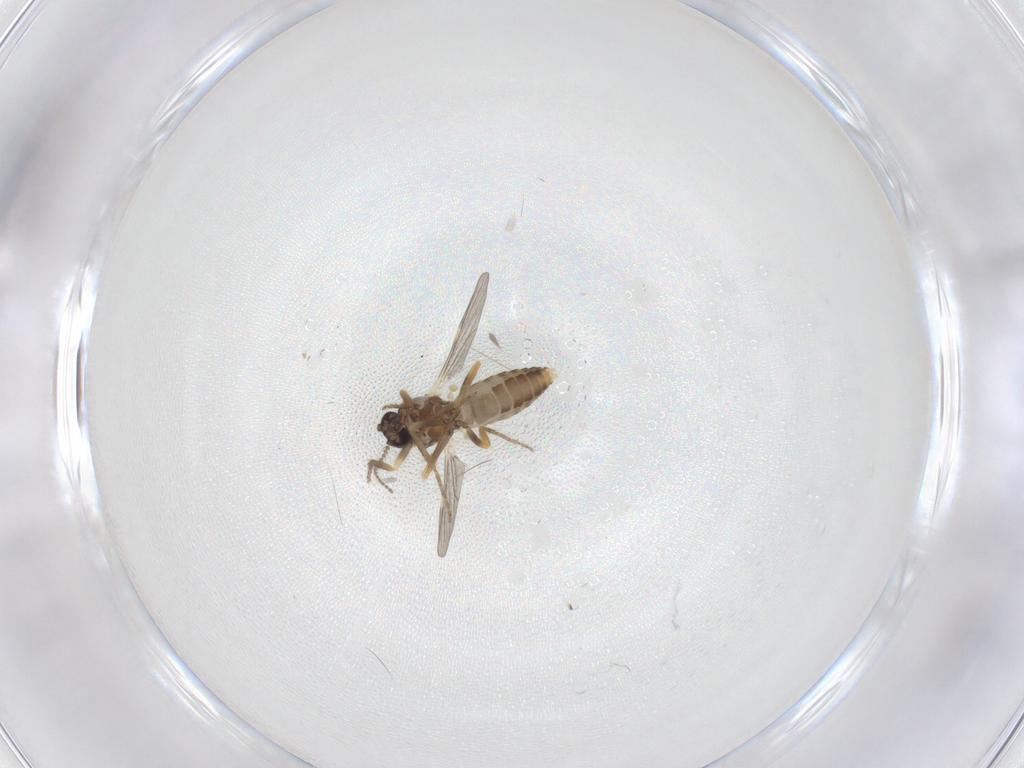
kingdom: Animalia
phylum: Arthropoda
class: Insecta
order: Diptera
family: Ceratopogonidae
